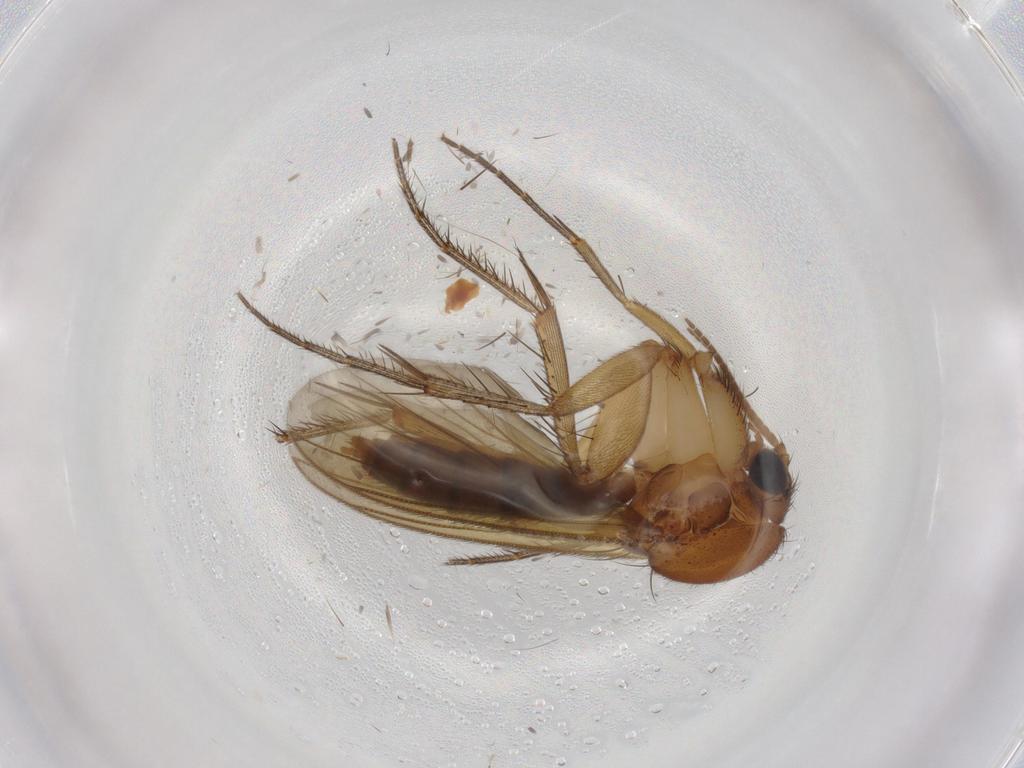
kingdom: Animalia
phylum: Arthropoda
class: Insecta
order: Diptera
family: Sciaridae
